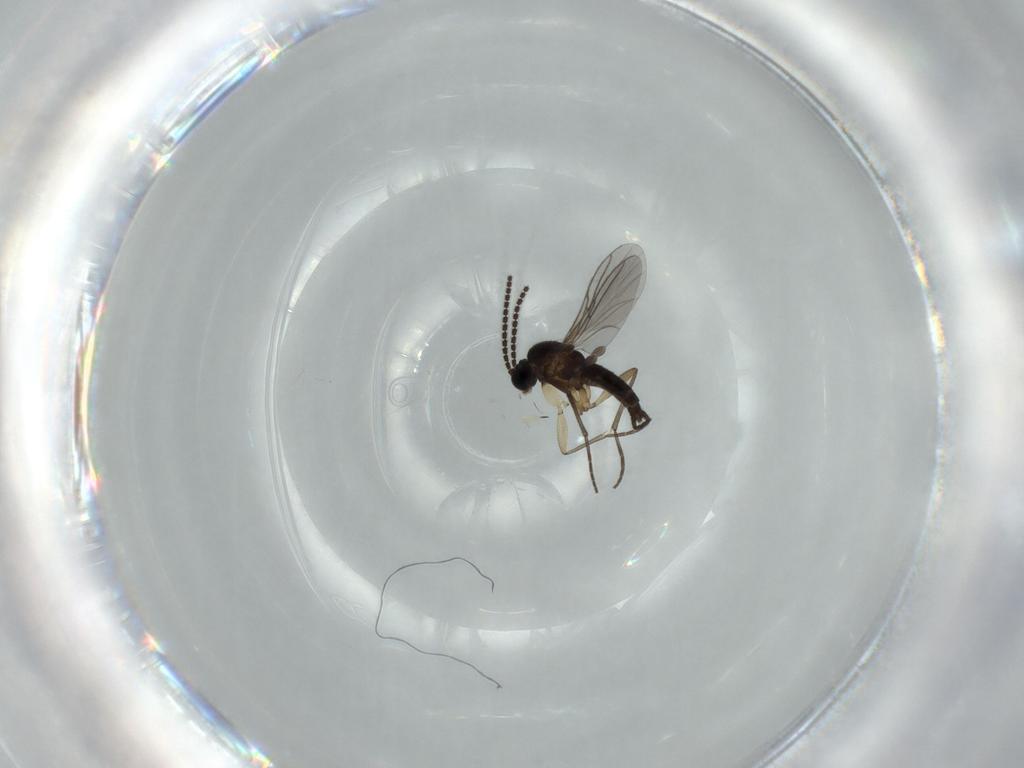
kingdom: Animalia
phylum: Arthropoda
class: Insecta
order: Diptera
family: Sciaridae
